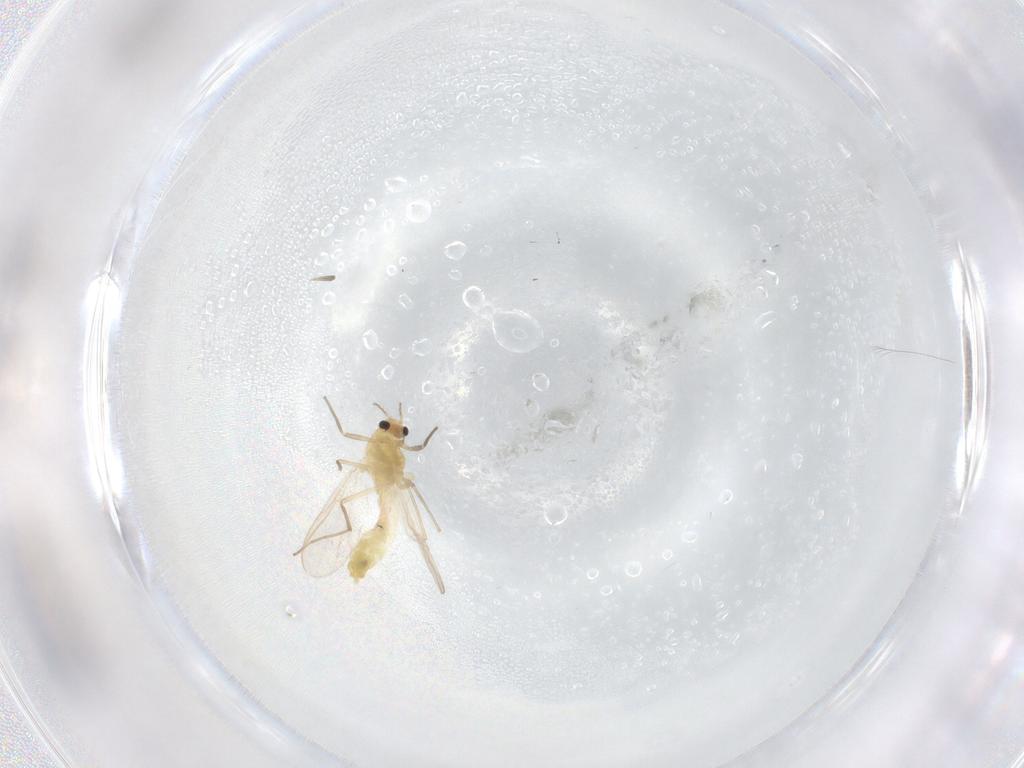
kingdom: Animalia
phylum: Arthropoda
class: Insecta
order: Diptera
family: Chironomidae
